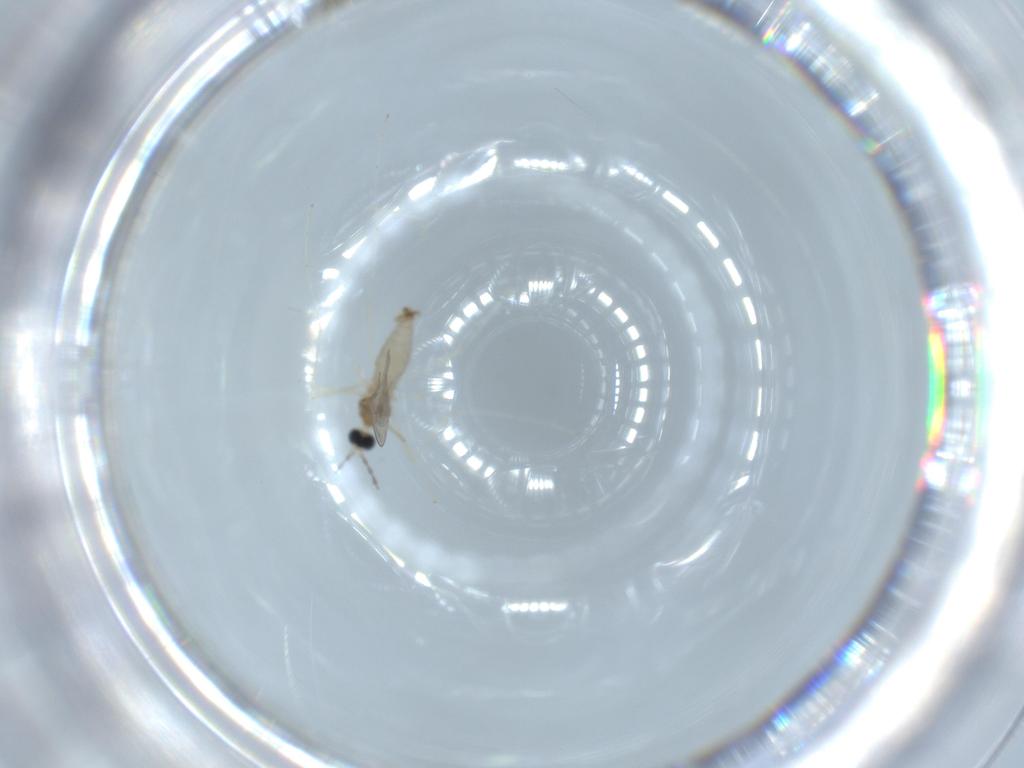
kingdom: Animalia
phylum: Arthropoda
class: Insecta
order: Diptera
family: Cecidomyiidae
